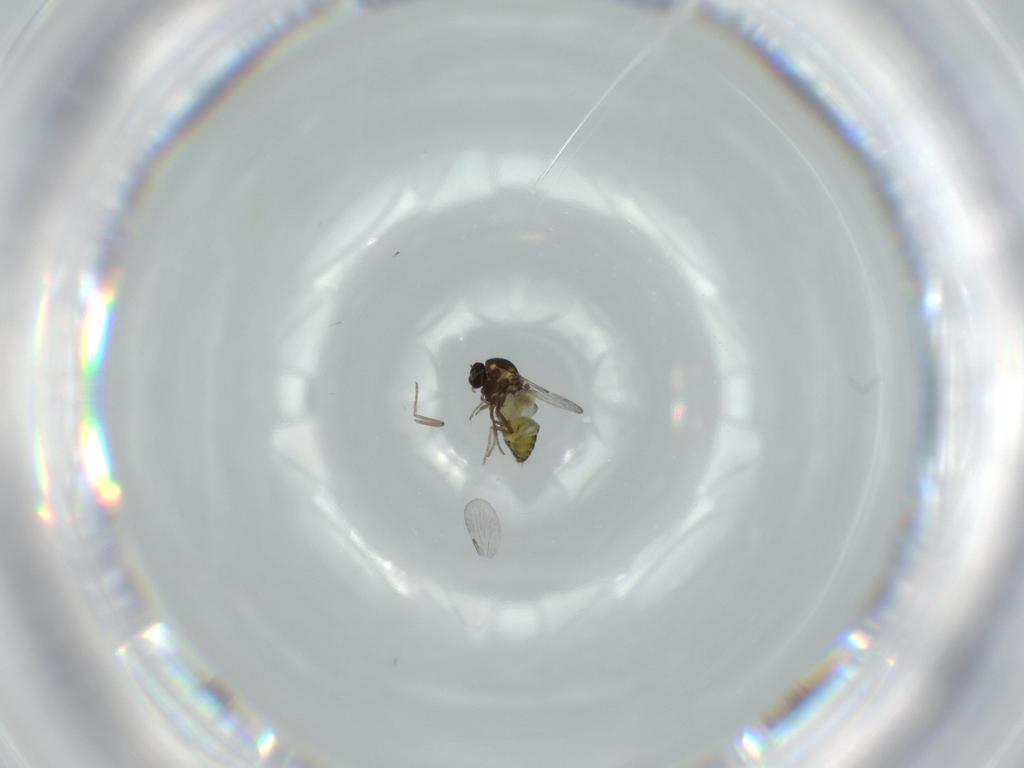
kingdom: Animalia
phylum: Arthropoda
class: Insecta
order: Diptera
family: Ceratopogonidae
